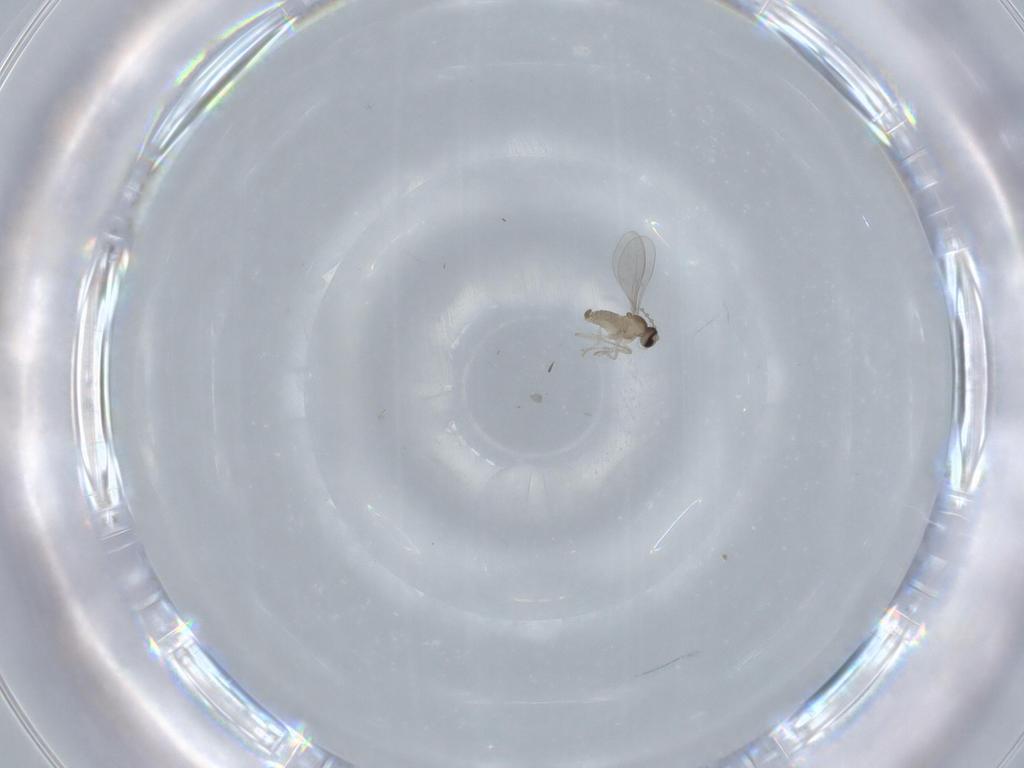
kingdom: Animalia
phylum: Arthropoda
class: Insecta
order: Diptera
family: Cecidomyiidae
